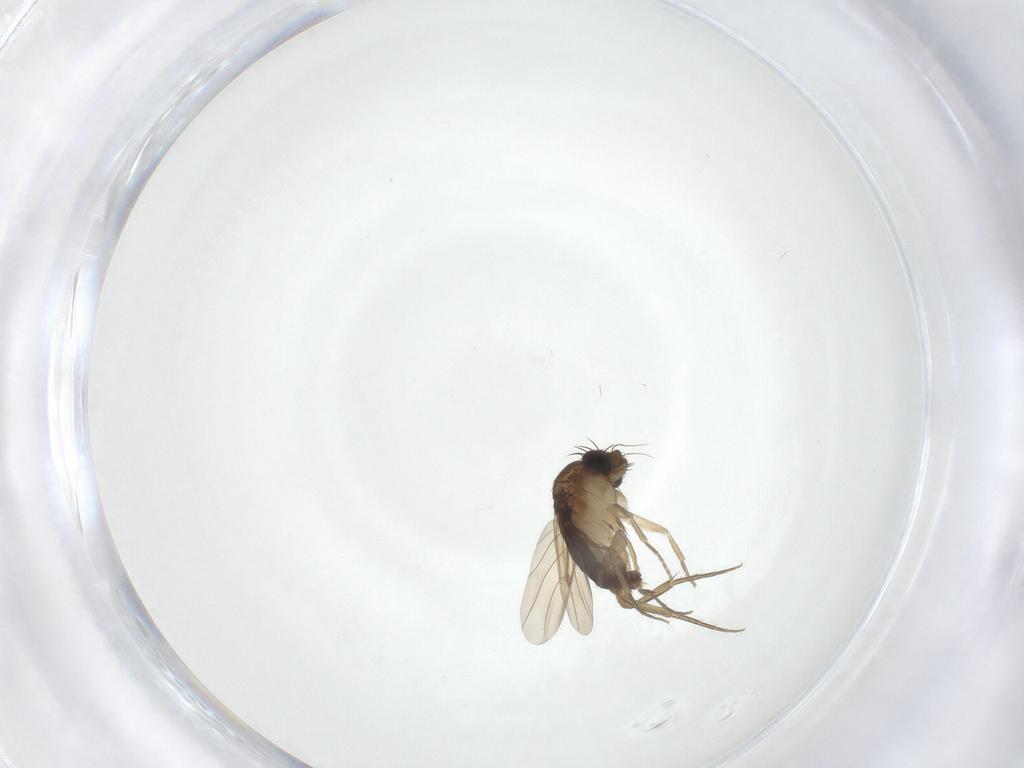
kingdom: Animalia
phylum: Arthropoda
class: Insecta
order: Diptera
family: Phoridae
